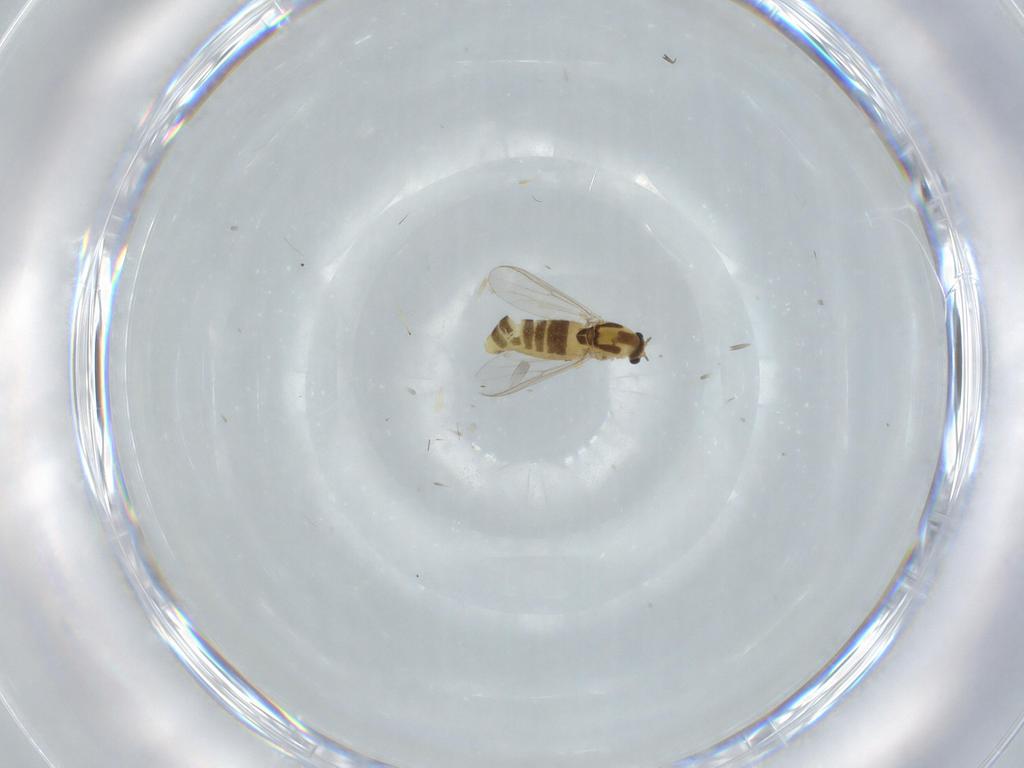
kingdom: Animalia
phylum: Arthropoda
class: Insecta
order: Diptera
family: Chironomidae
